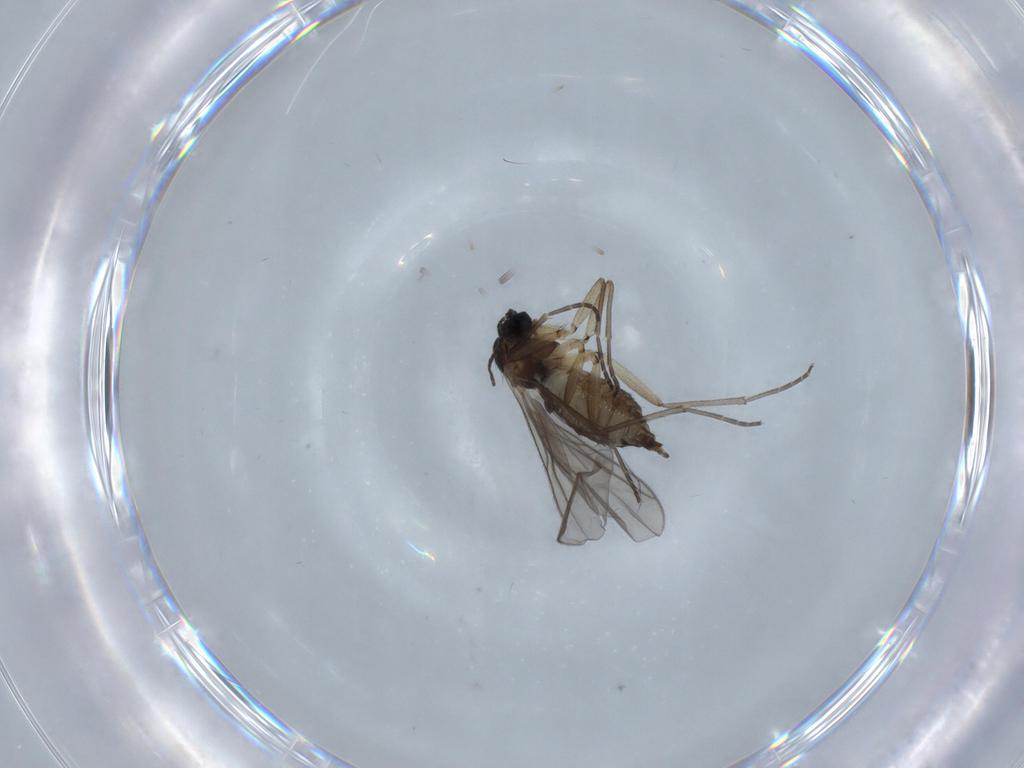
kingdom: Animalia
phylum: Arthropoda
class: Insecta
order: Diptera
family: Sciaridae
